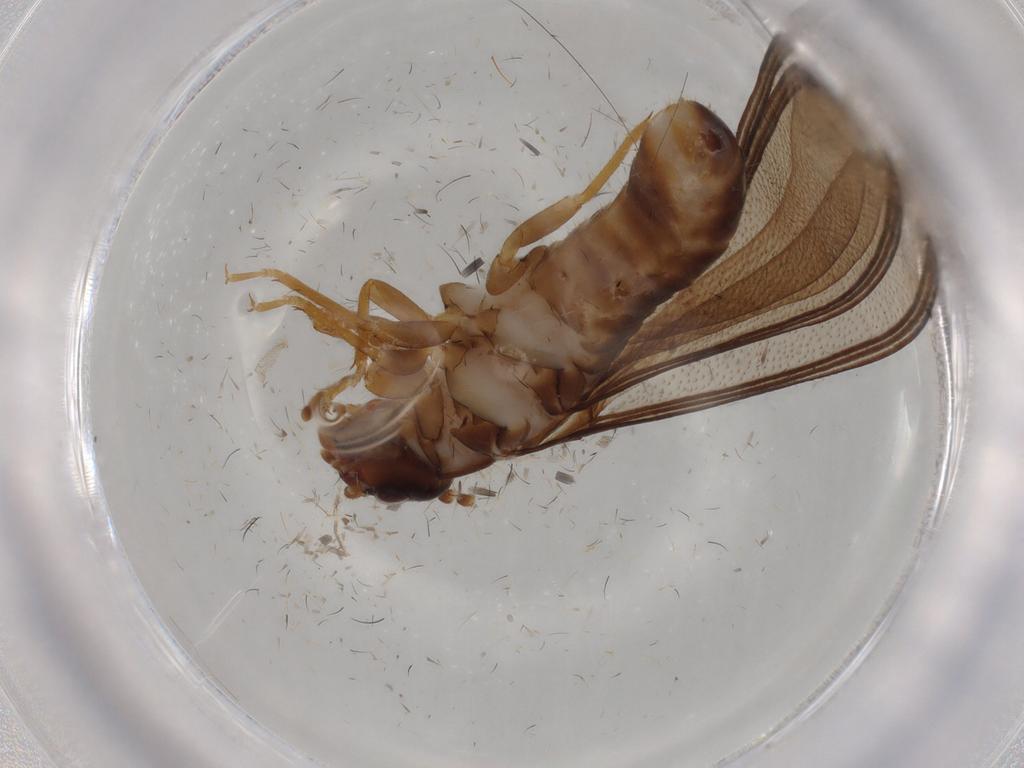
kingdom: Animalia
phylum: Arthropoda
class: Insecta
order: Blattodea
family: Kalotermitidae
